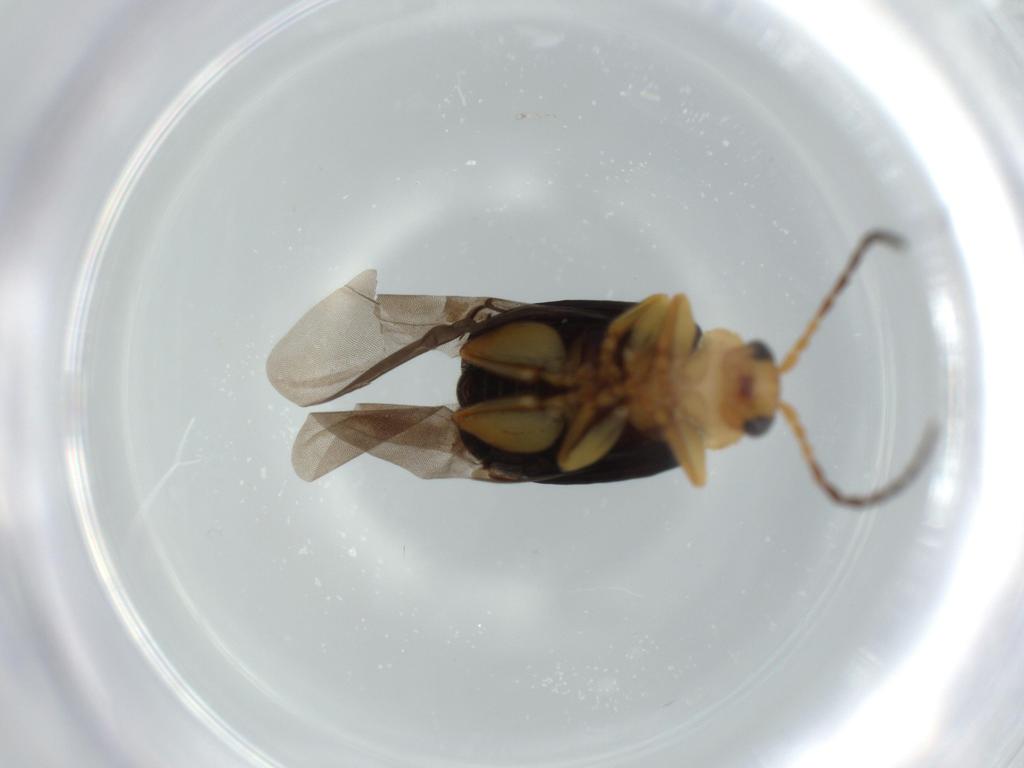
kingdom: Animalia
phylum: Arthropoda
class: Insecta
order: Coleoptera
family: Chrysomelidae
